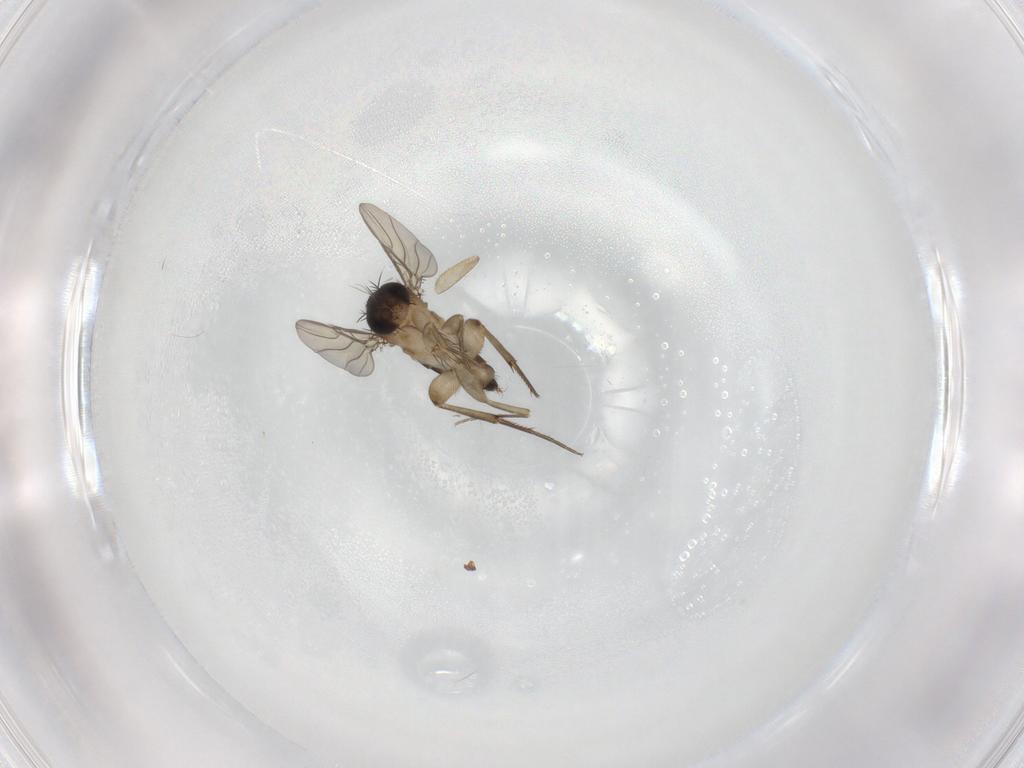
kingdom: Animalia
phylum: Arthropoda
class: Insecta
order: Diptera
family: Phoridae
